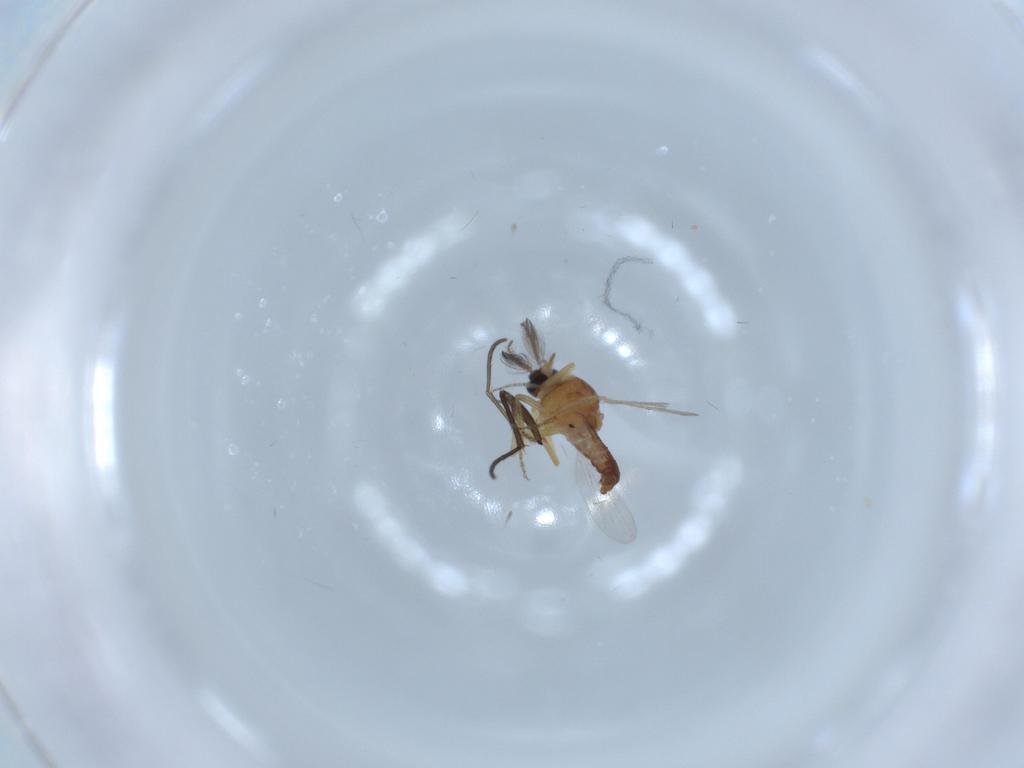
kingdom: Animalia
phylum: Arthropoda
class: Insecta
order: Diptera
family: Ceratopogonidae
